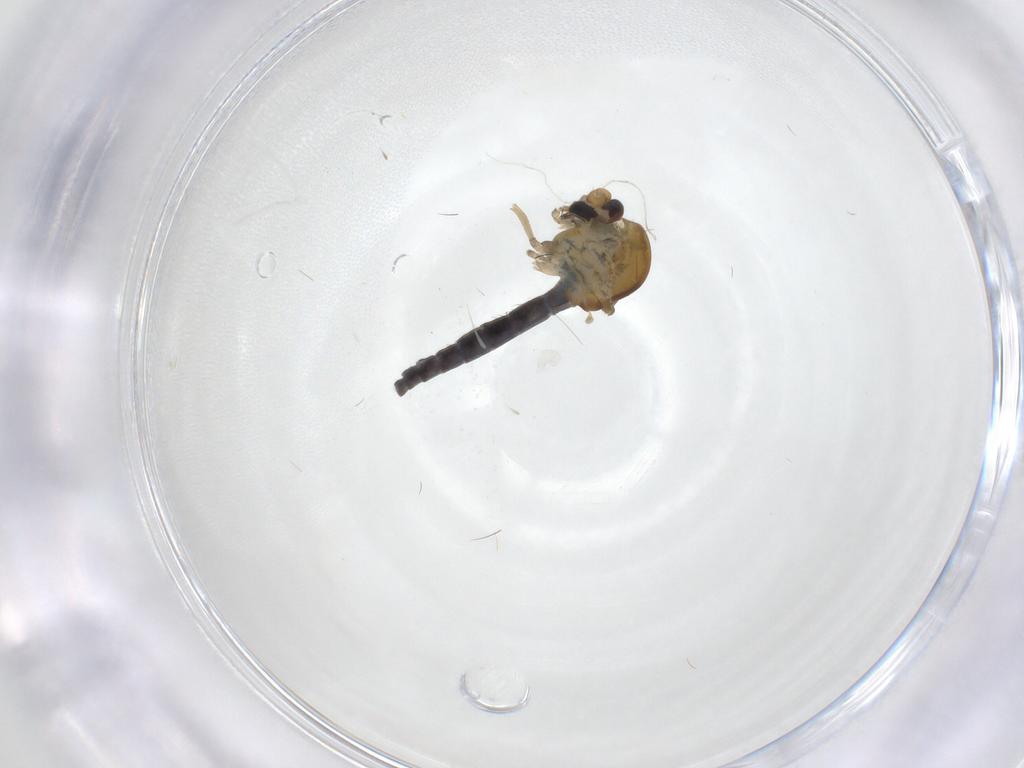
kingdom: Animalia
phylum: Arthropoda
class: Insecta
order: Diptera
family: Ceratopogonidae
